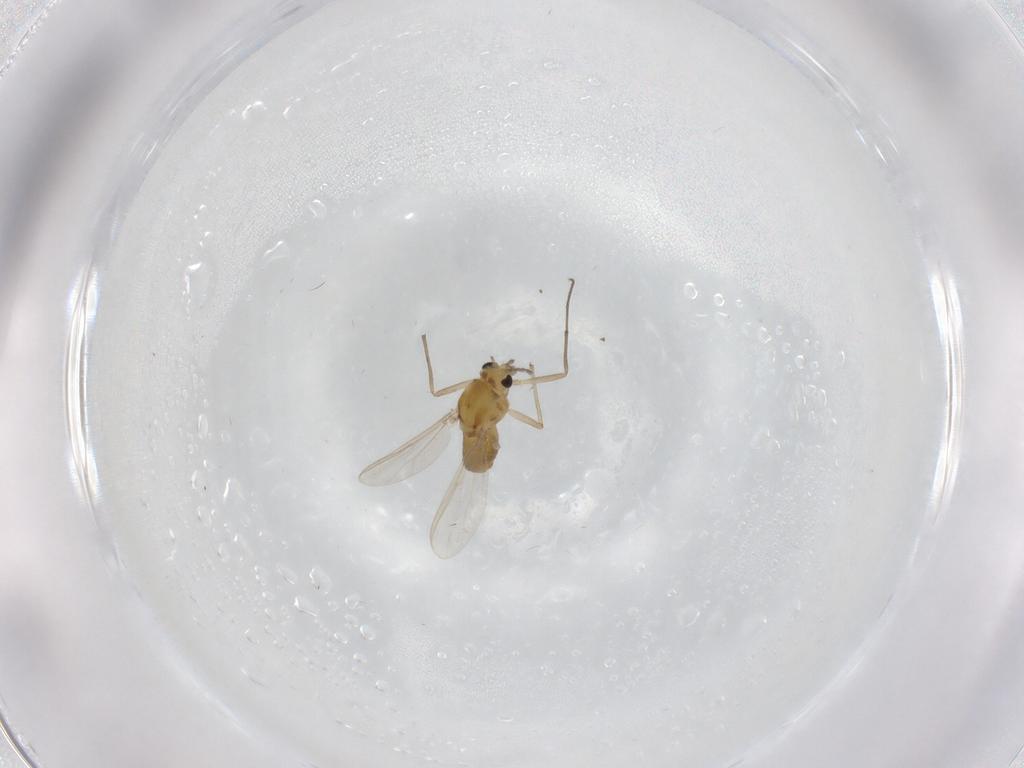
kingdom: Animalia
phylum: Arthropoda
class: Insecta
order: Diptera
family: Chironomidae
